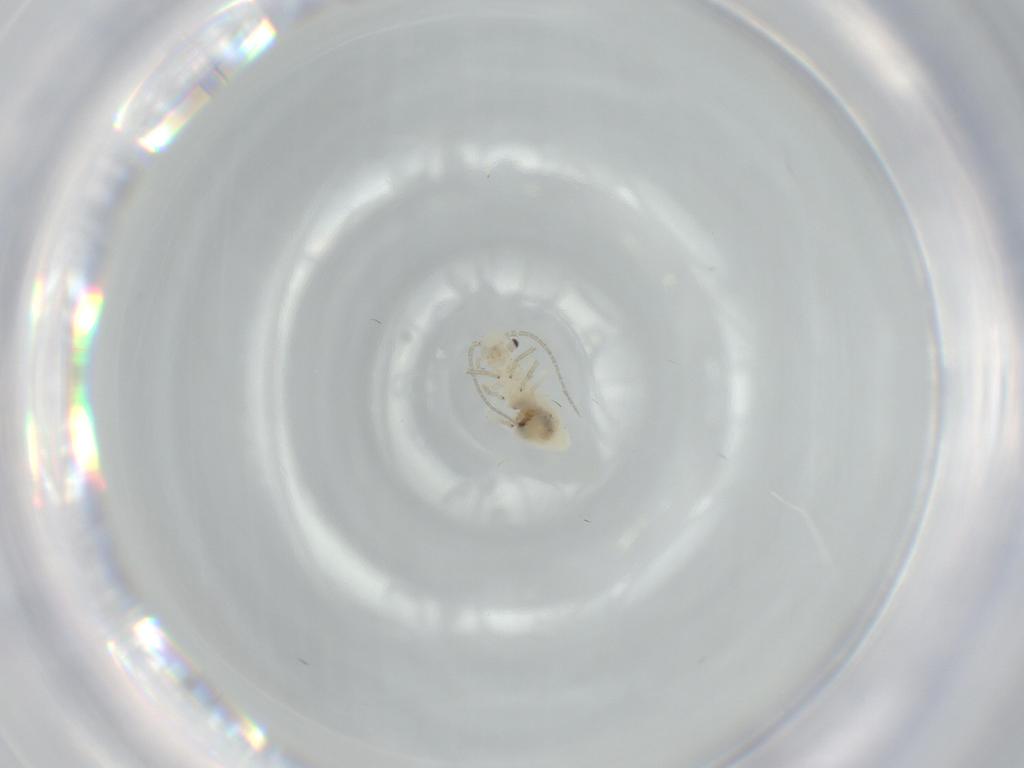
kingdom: Animalia
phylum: Arthropoda
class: Insecta
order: Psocodea
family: Caeciliusidae
